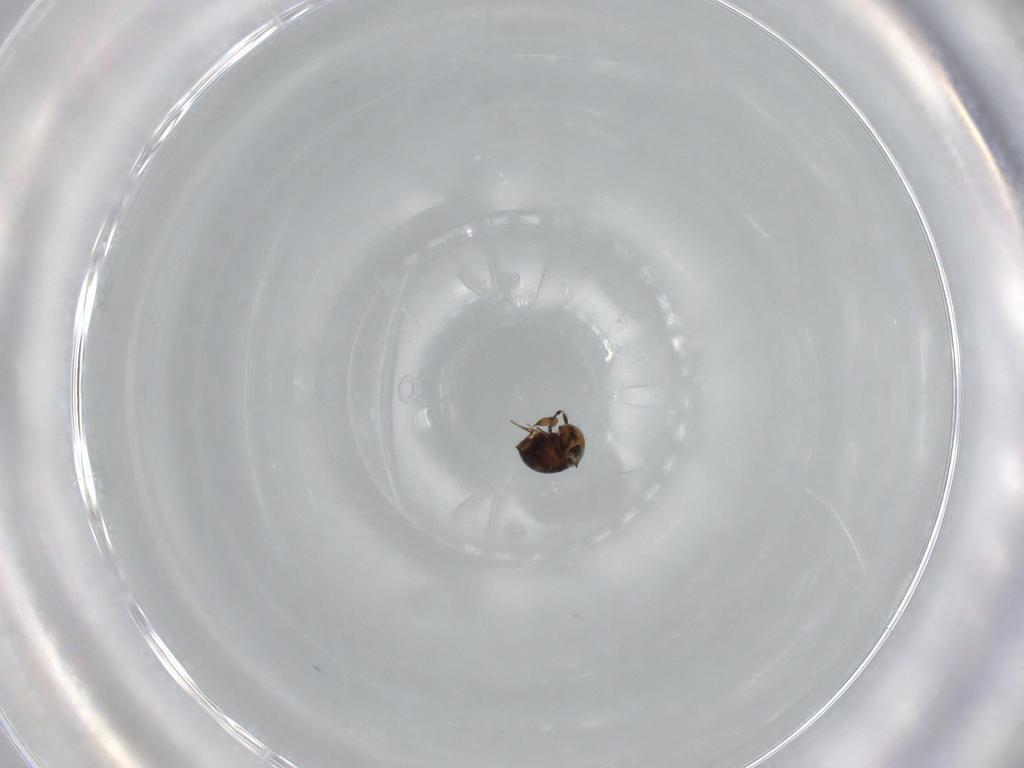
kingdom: Animalia
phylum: Arthropoda
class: Insecta
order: Hymenoptera
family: Scelionidae
